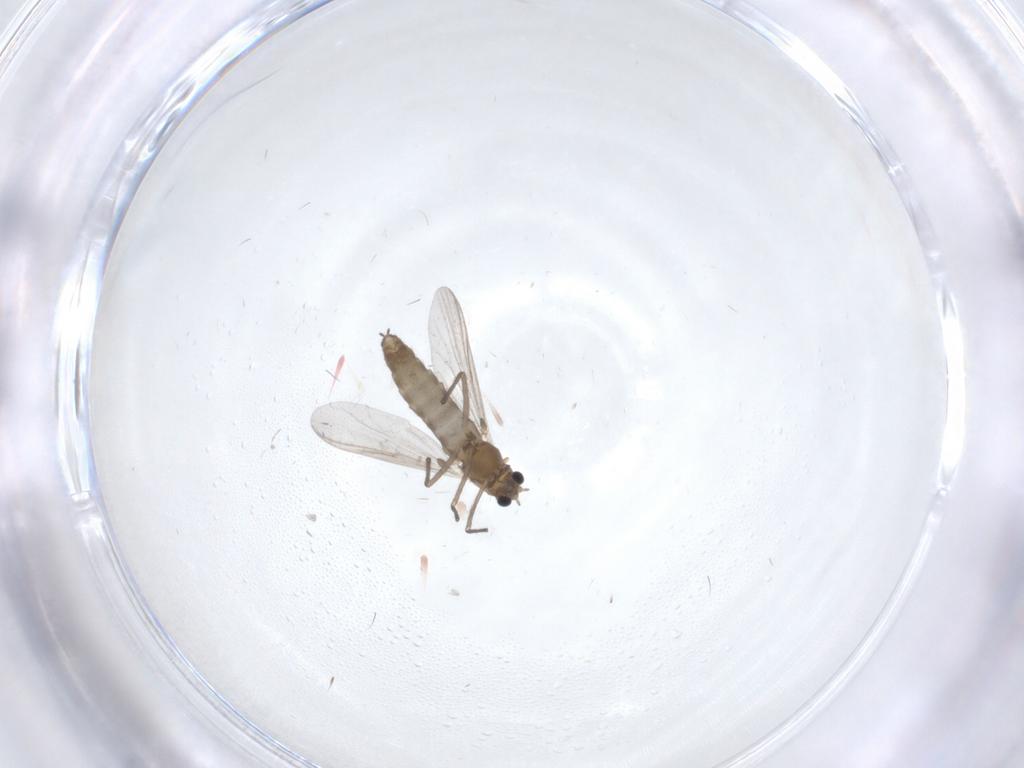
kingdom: Animalia
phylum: Arthropoda
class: Insecta
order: Diptera
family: Chironomidae
